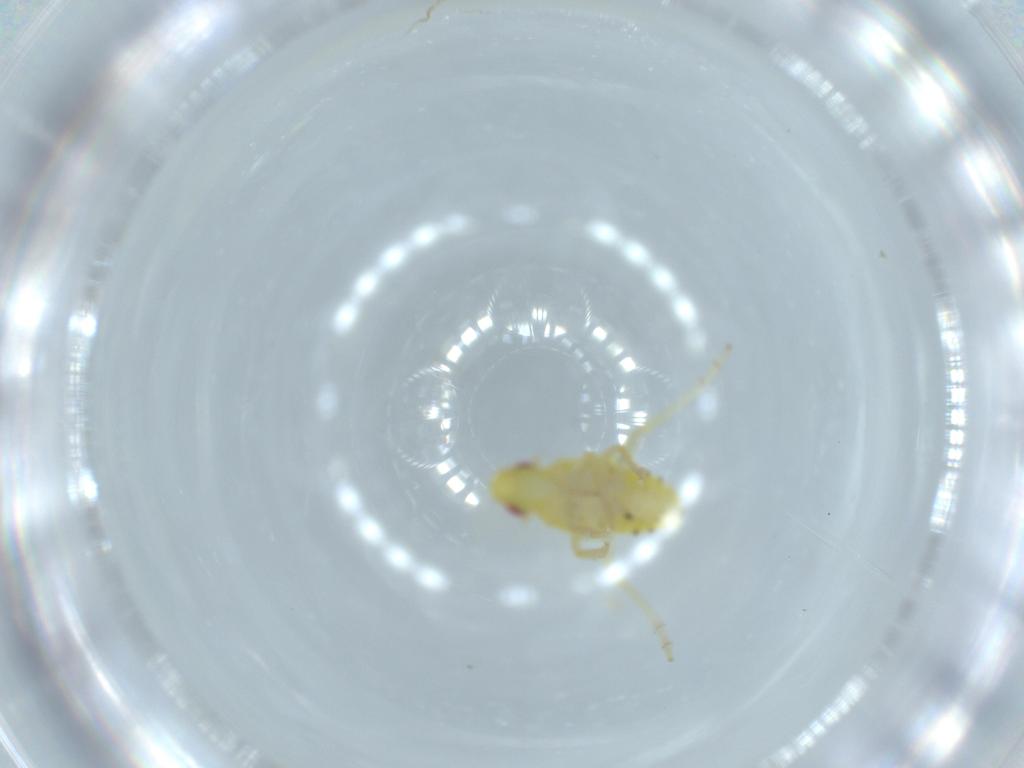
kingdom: Animalia
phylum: Arthropoda
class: Insecta
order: Hemiptera
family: Tropiduchidae
